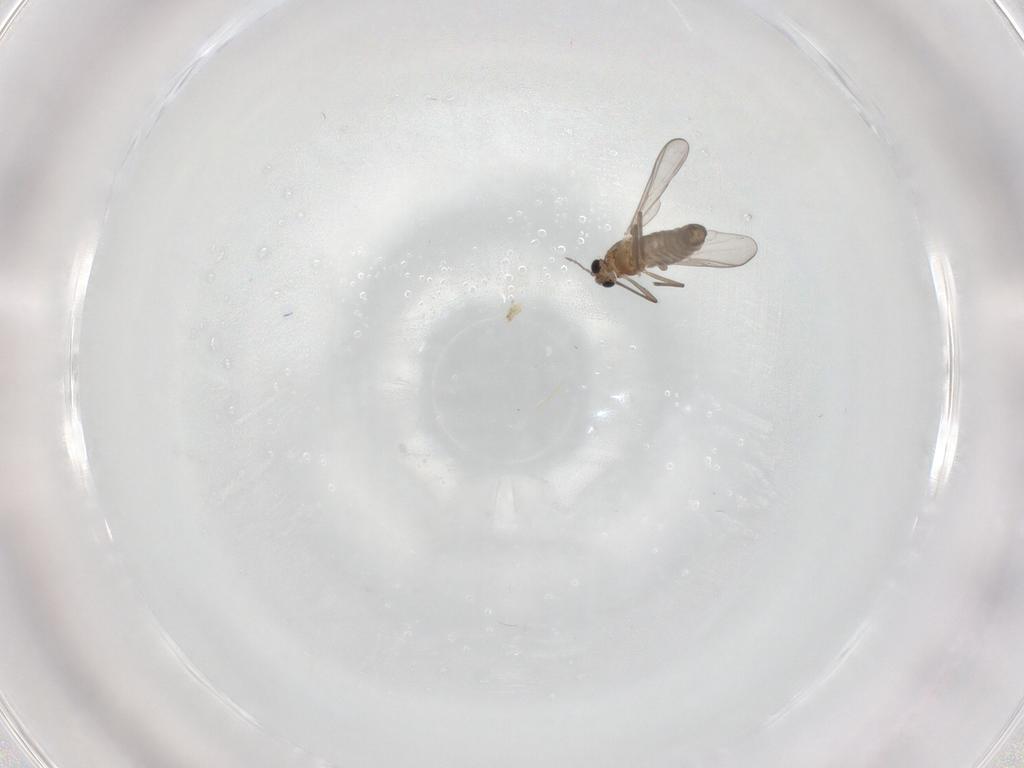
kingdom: Animalia
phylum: Arthropoda
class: Insecta
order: Diptera
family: Chironomidae
